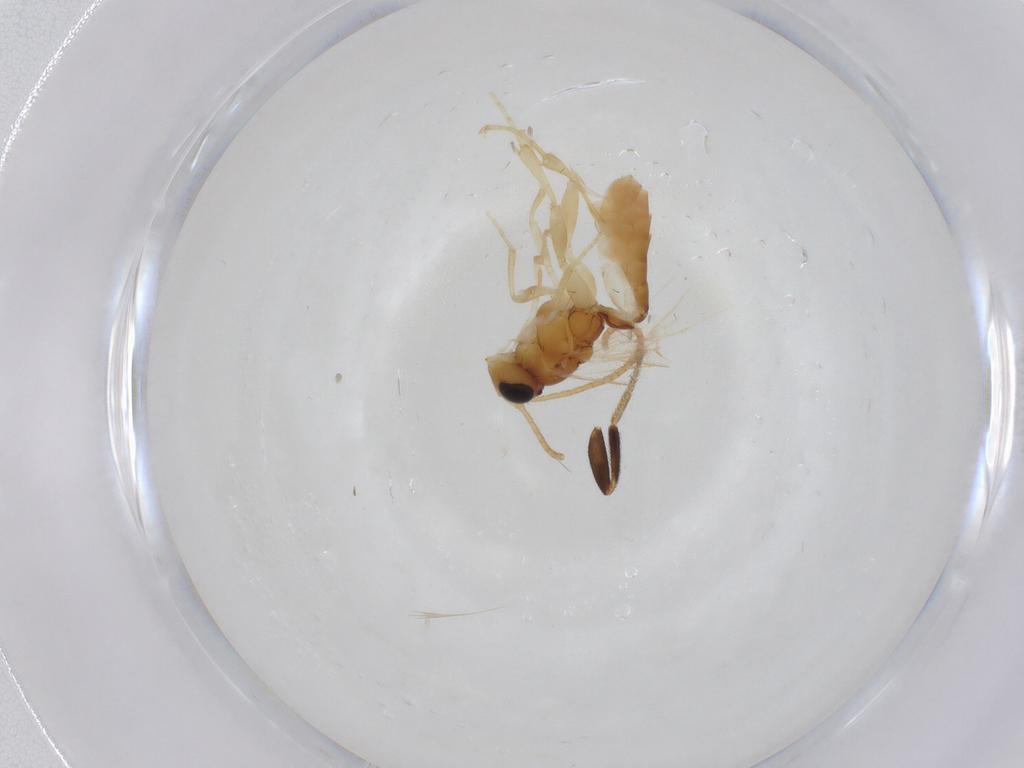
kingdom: Animalia
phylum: Arthropoda
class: Insecta
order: Hymenoptera
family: Ichneumonidae
